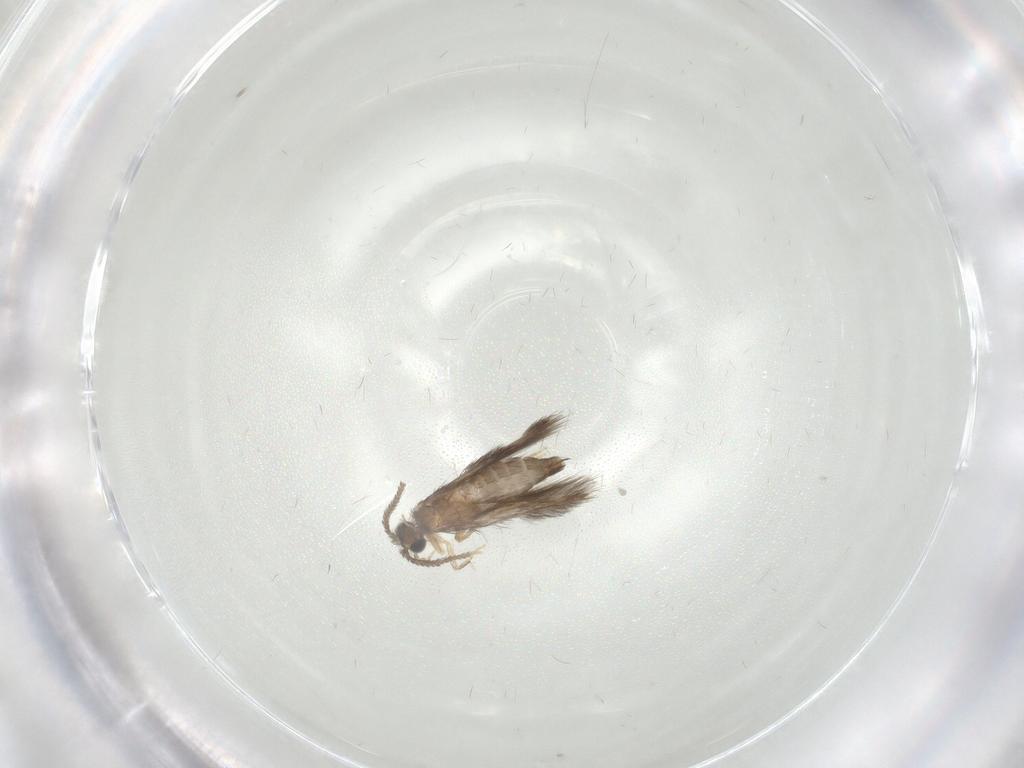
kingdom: Animalia
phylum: Arthropoda
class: Insecta
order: Trichoptera
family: Hydroptilidae
